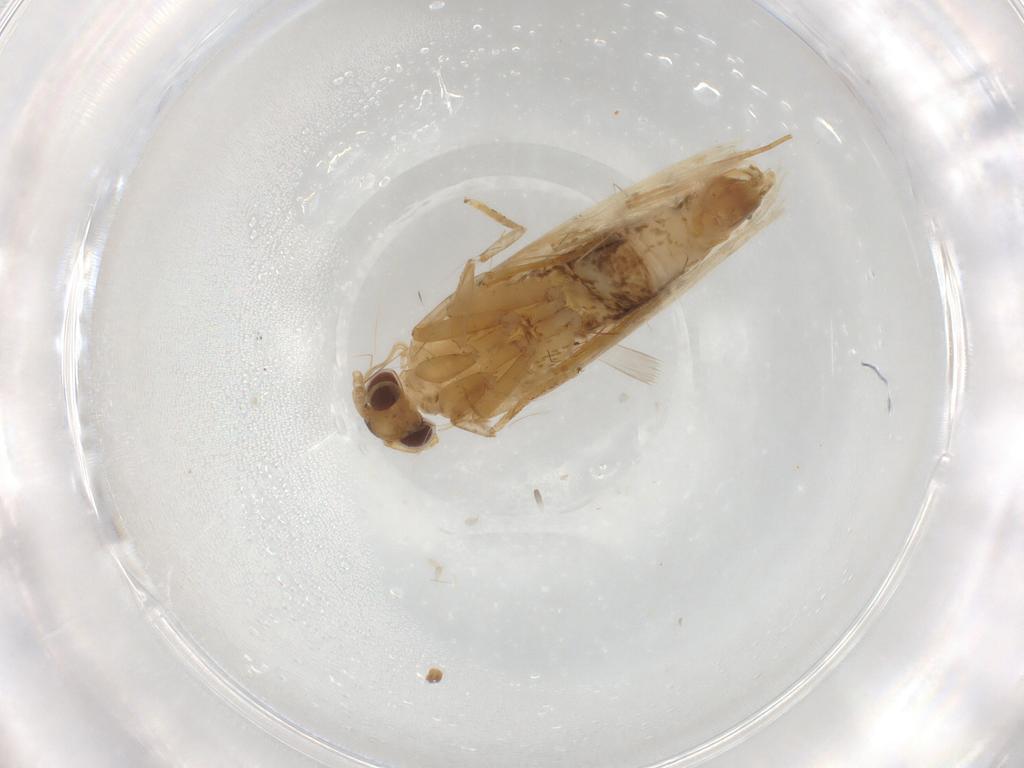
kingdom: Animalia
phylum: Arthropoda
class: Insecta
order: Lepidoptera
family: Lecithoceridae
